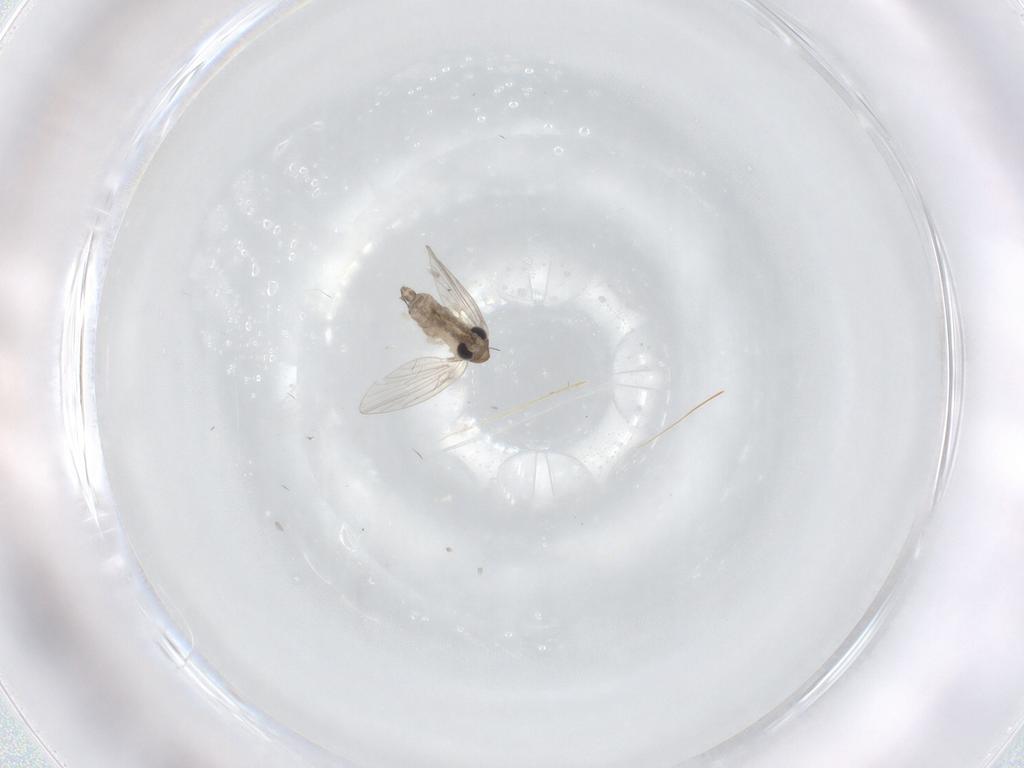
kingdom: Animalia
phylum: Arthropoda
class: Insecta
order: Diptera
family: Psychodidae
